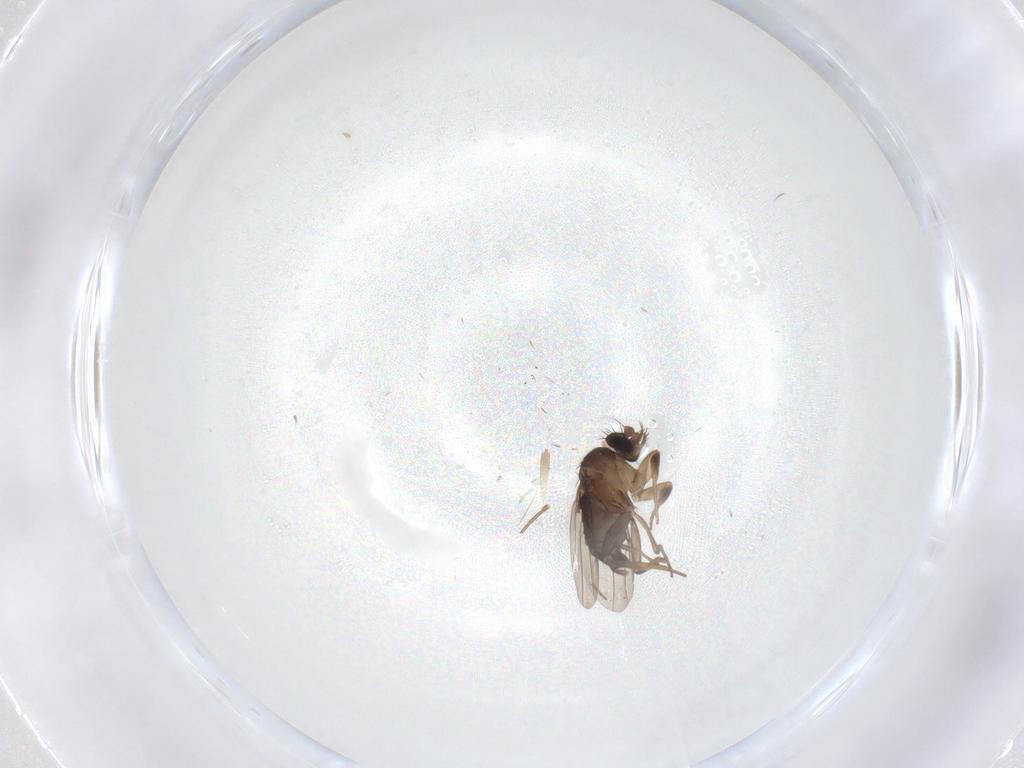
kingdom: Animalia
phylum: Arthropoda
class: Insecta
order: Diptera
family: Phoridae
